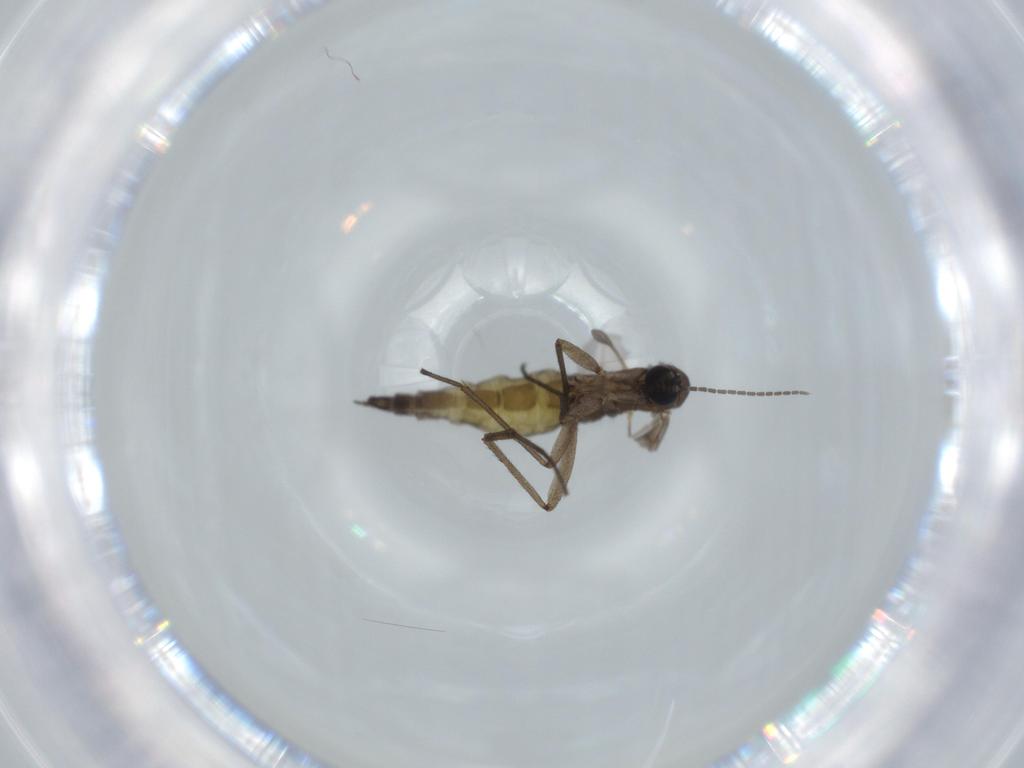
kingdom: Animalia
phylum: Arthropoda
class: Insecta
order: Diptera
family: Sciaridae
